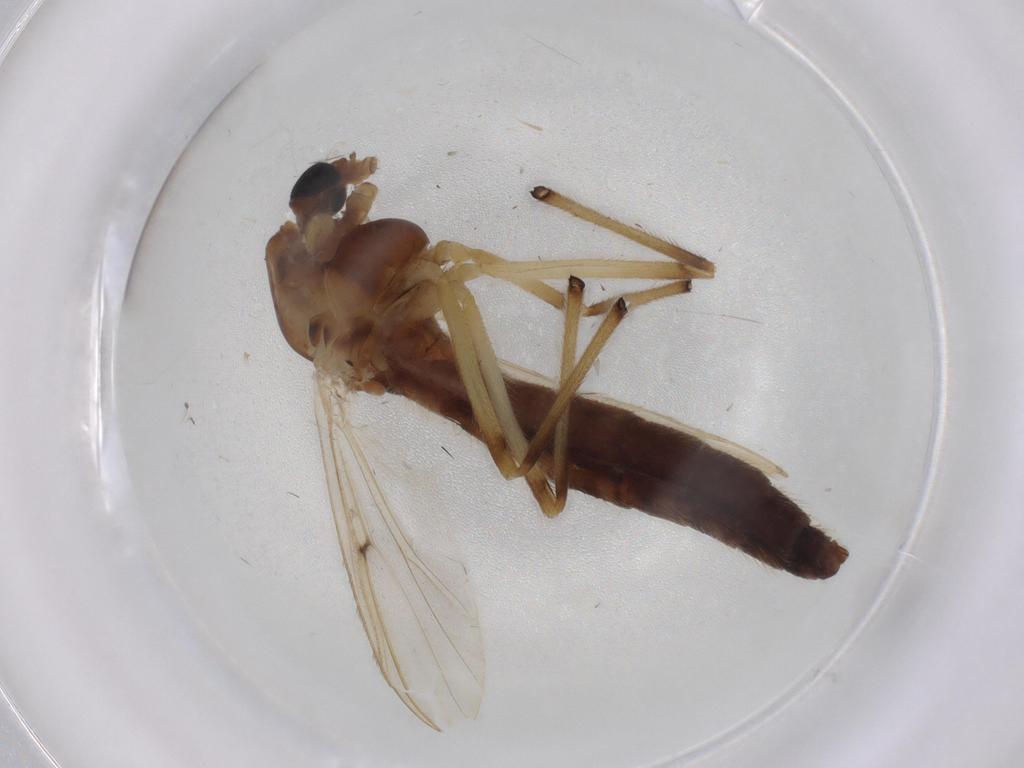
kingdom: Animalia
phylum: Arthropoda
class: Insecta
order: Diptera
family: Chironomidae
